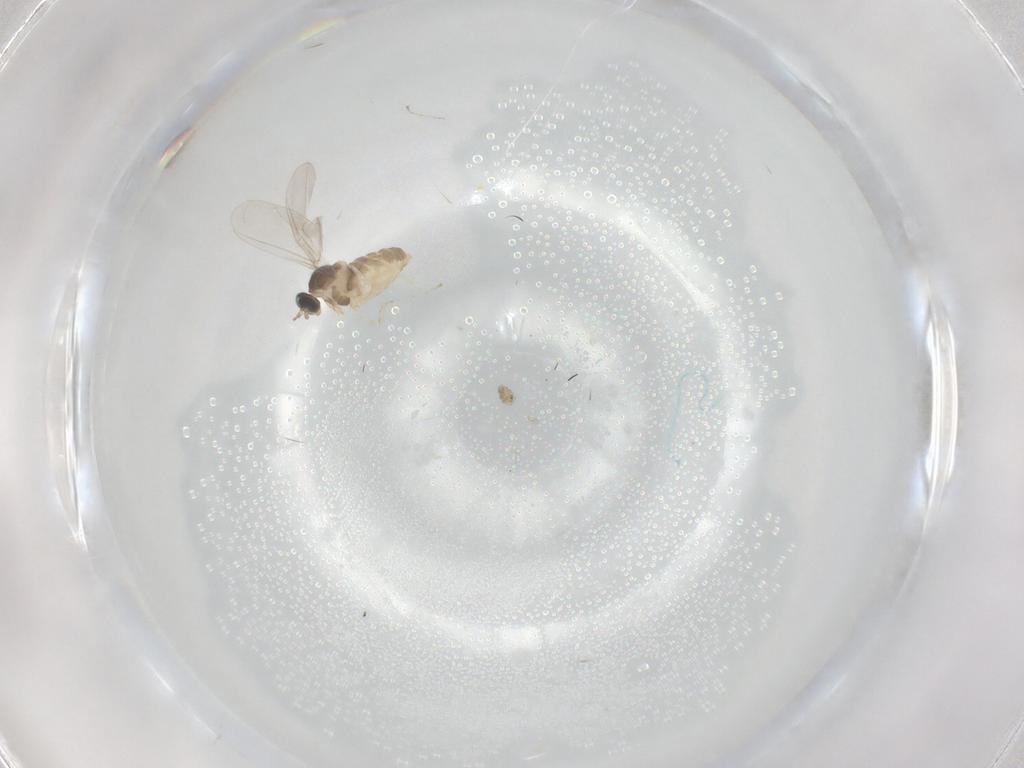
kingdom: Animalia
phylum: Arthropoda
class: Insecta
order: Diptera
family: Cecidomyiidae
